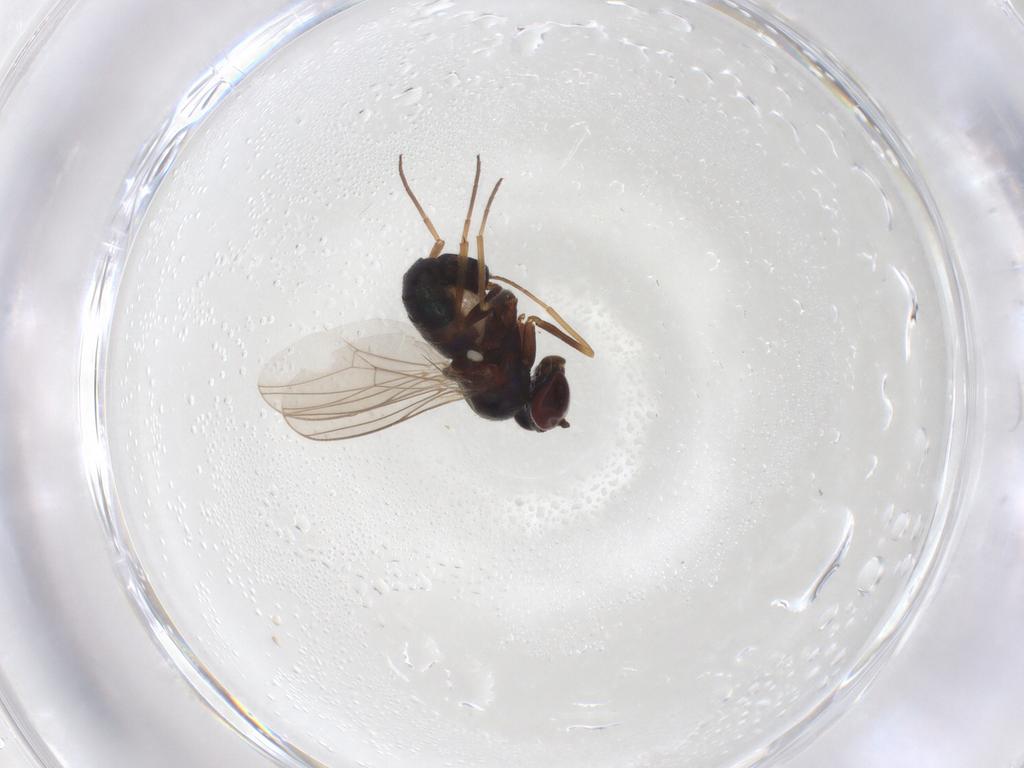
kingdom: Animalia
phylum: Arthropoda
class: Insecta
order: Diptera
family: Dolichopodidae
